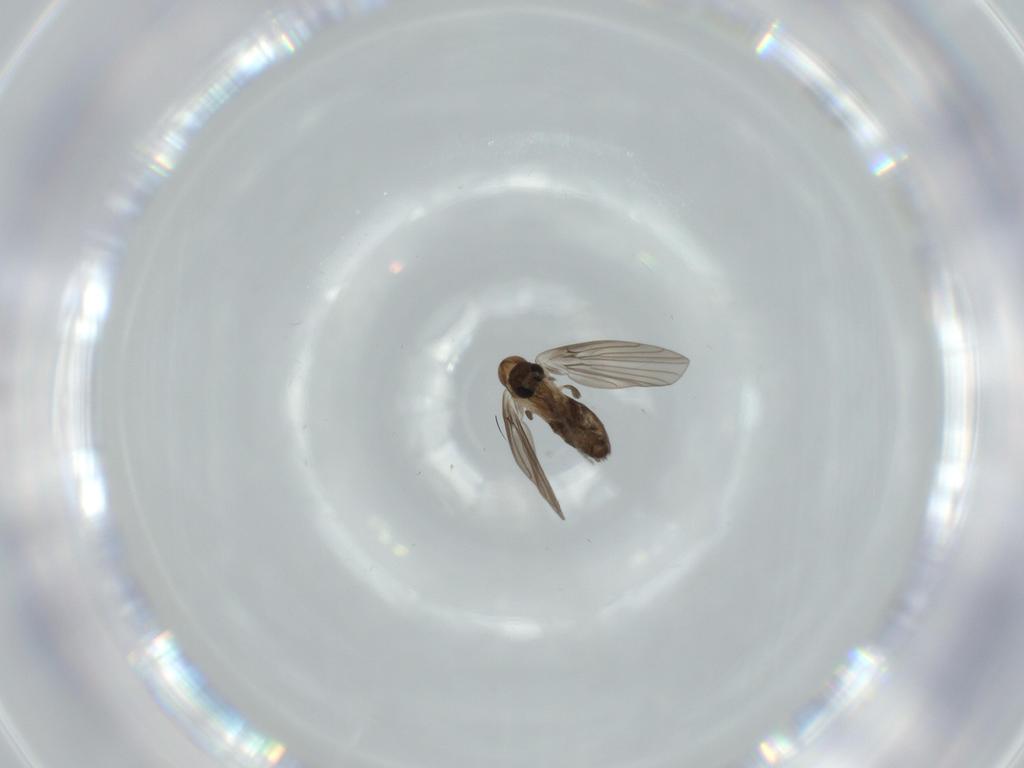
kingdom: Animalia
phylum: Arthropoda
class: Insecta
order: Diptera
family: Psychodidae
